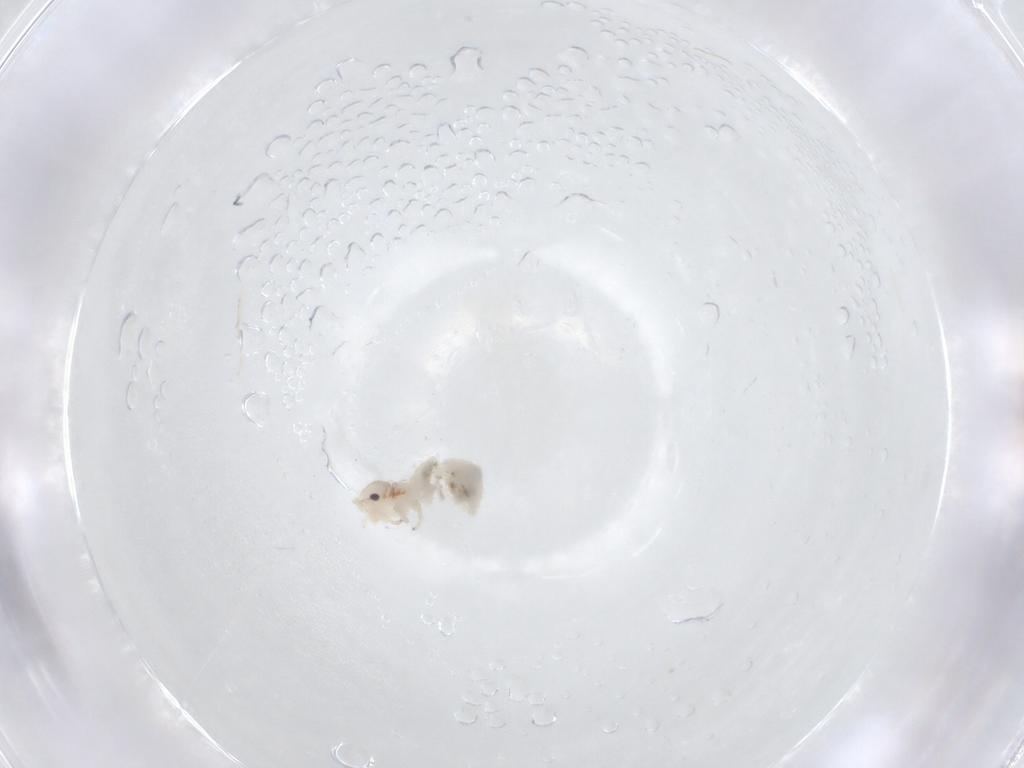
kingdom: Animalia
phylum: Arthropoda
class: Insecta
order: Psocodea
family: Amphipsocidae
